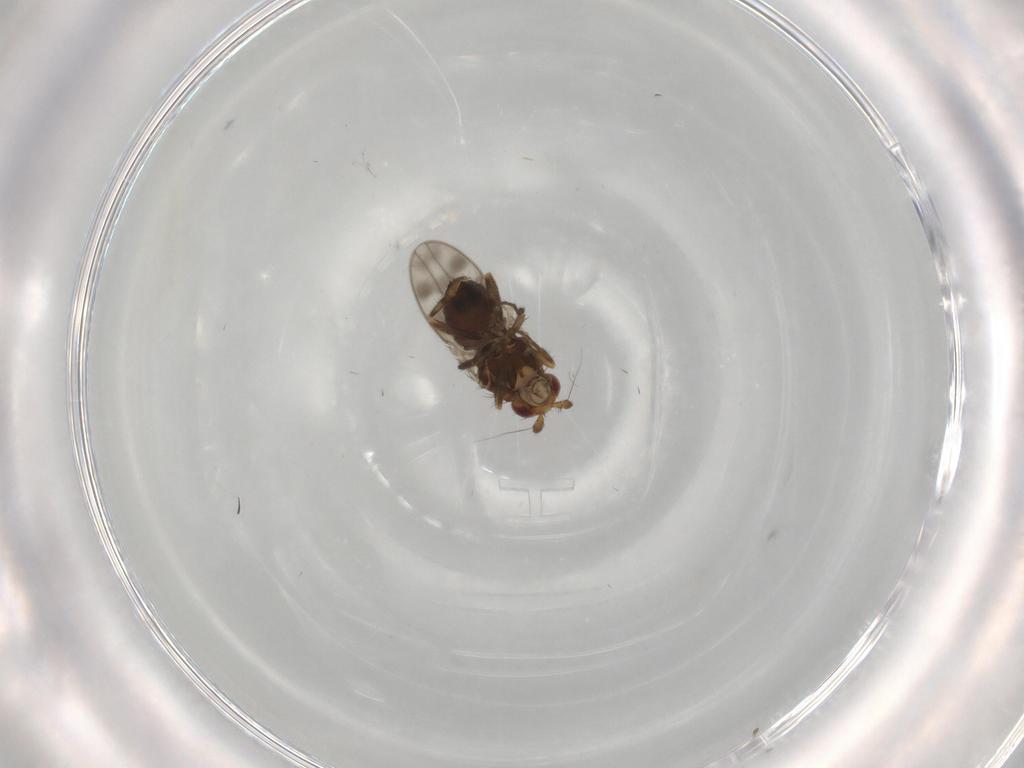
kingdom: Animalia
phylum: Arthropoda
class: Insecta
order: Diptera
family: Sphaeroceridae
